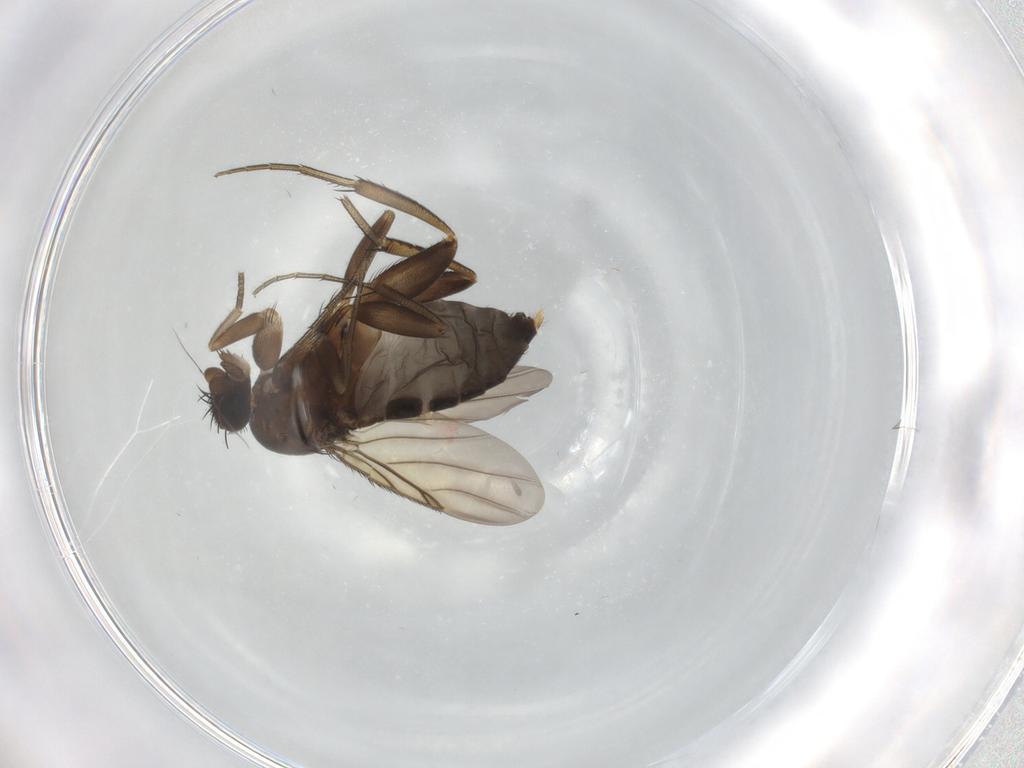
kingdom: Animalia
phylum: Arthropoda
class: Insecta
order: Diptera
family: Phoridae
